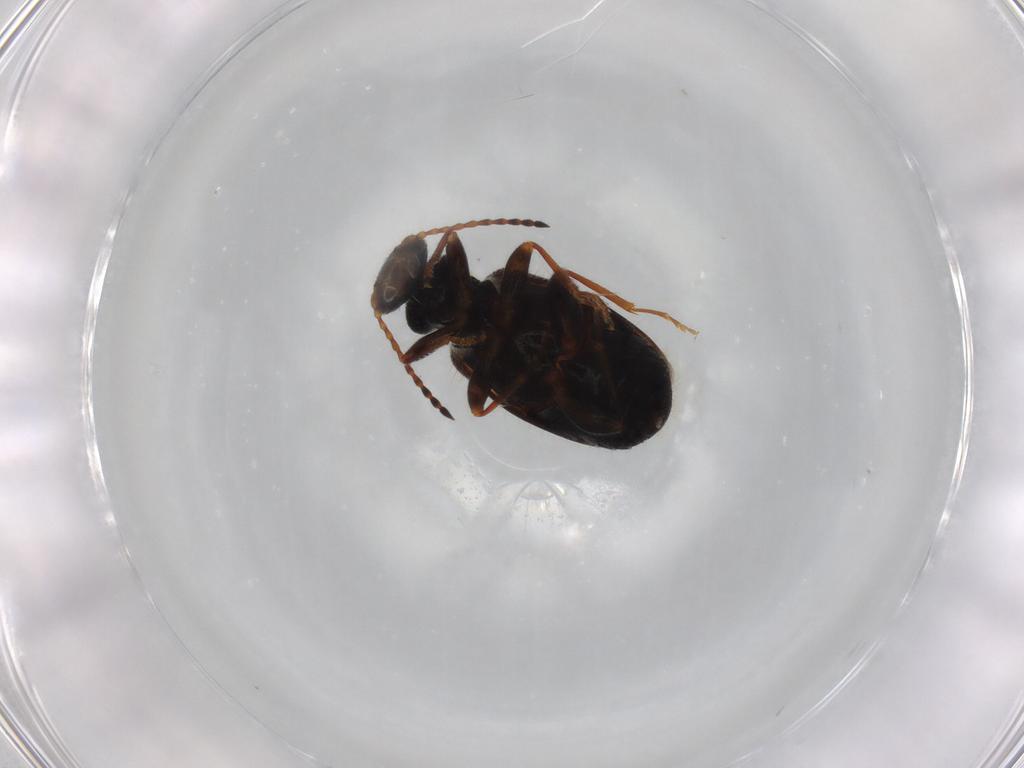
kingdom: Animalia
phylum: Arthropoda
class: Insecta
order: Coleoptera
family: Anthicidae
